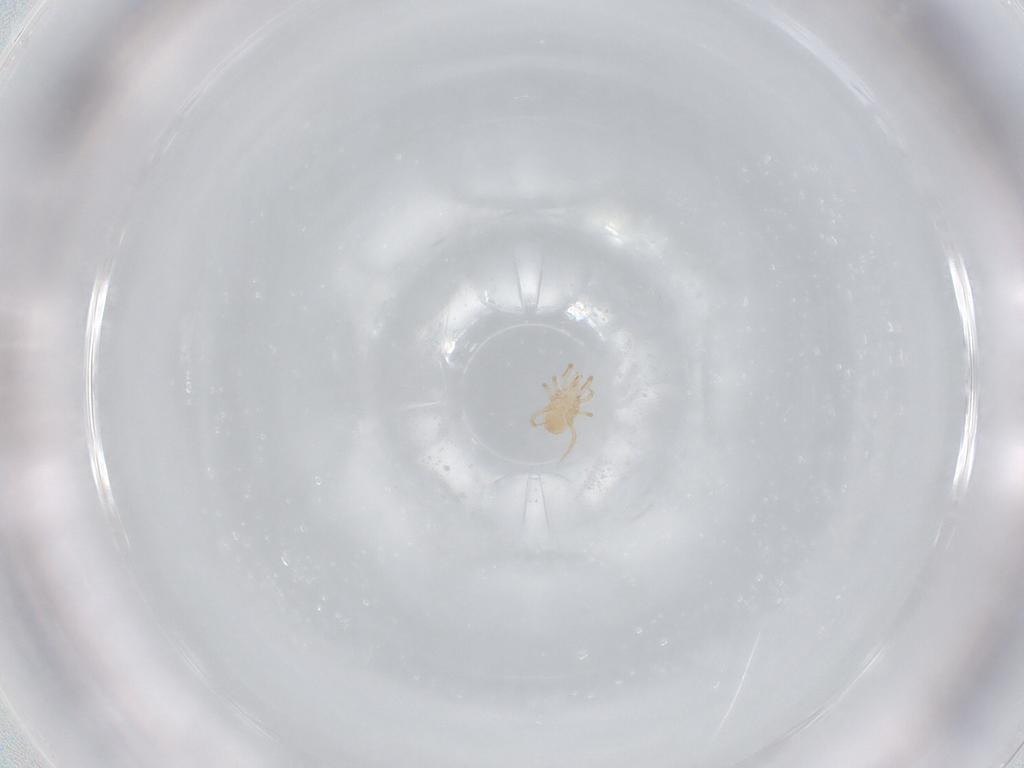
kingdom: Animalia
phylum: Arthropoda
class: Arachnida
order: Mesostigmata
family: Blattisociidae
